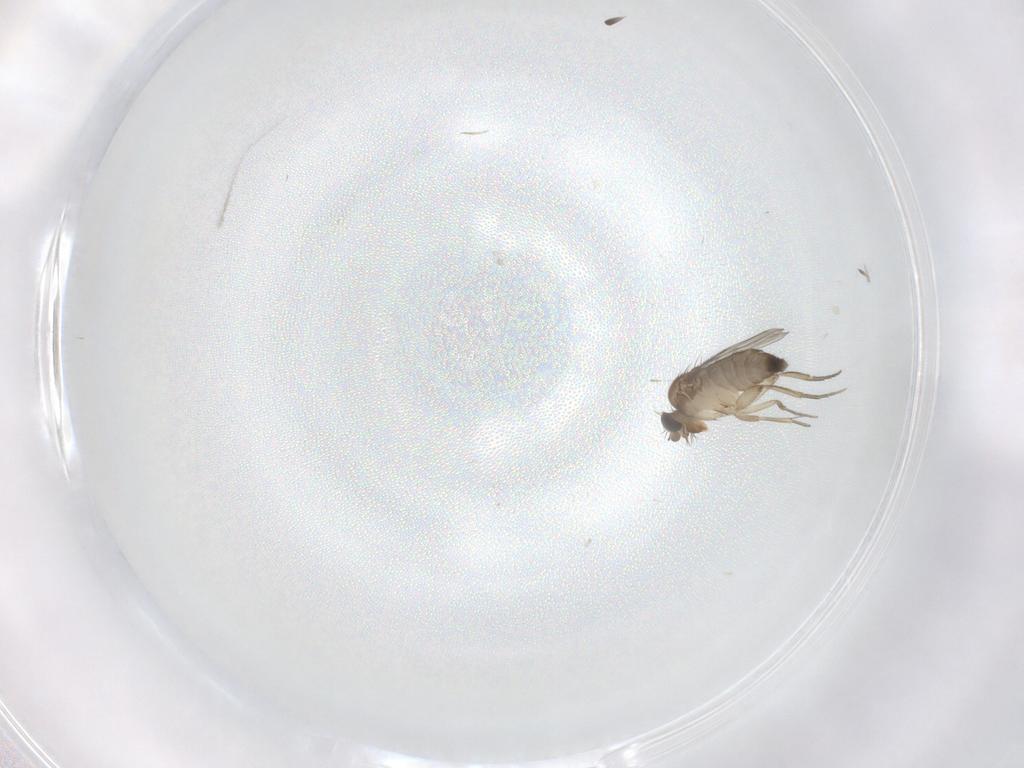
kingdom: Animalia
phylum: Arthropoda
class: Insecta
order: Diptera
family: Phoridae
